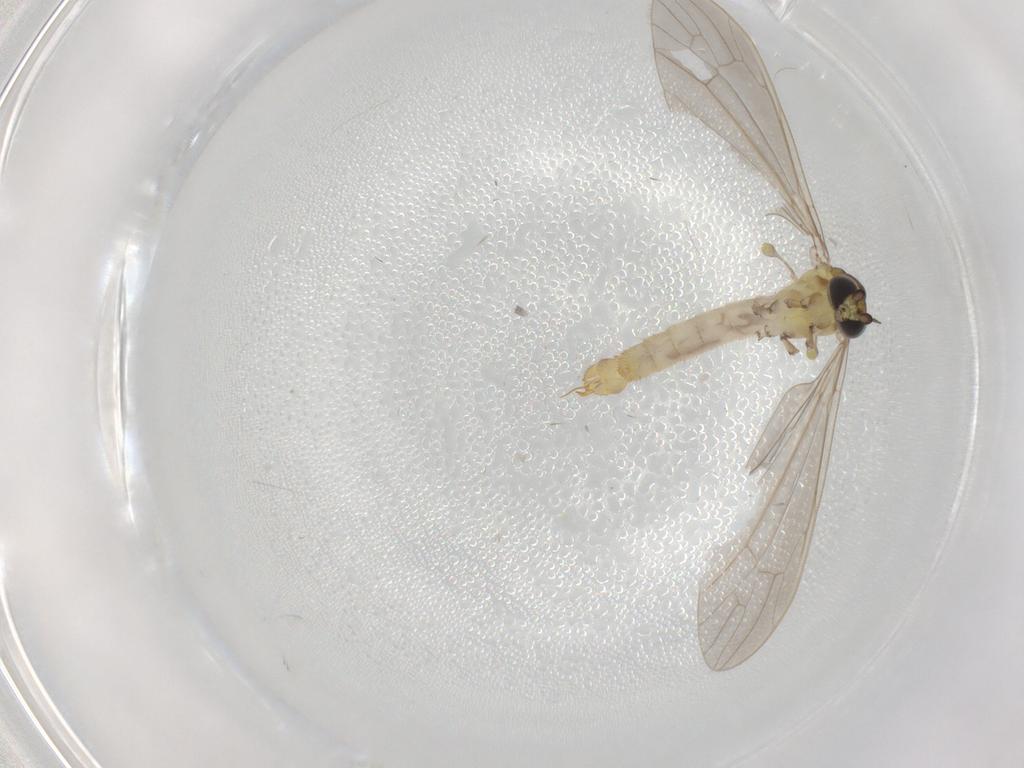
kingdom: Animalia
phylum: Arthropoda
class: Insecta
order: Diptera
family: Limoniidae
